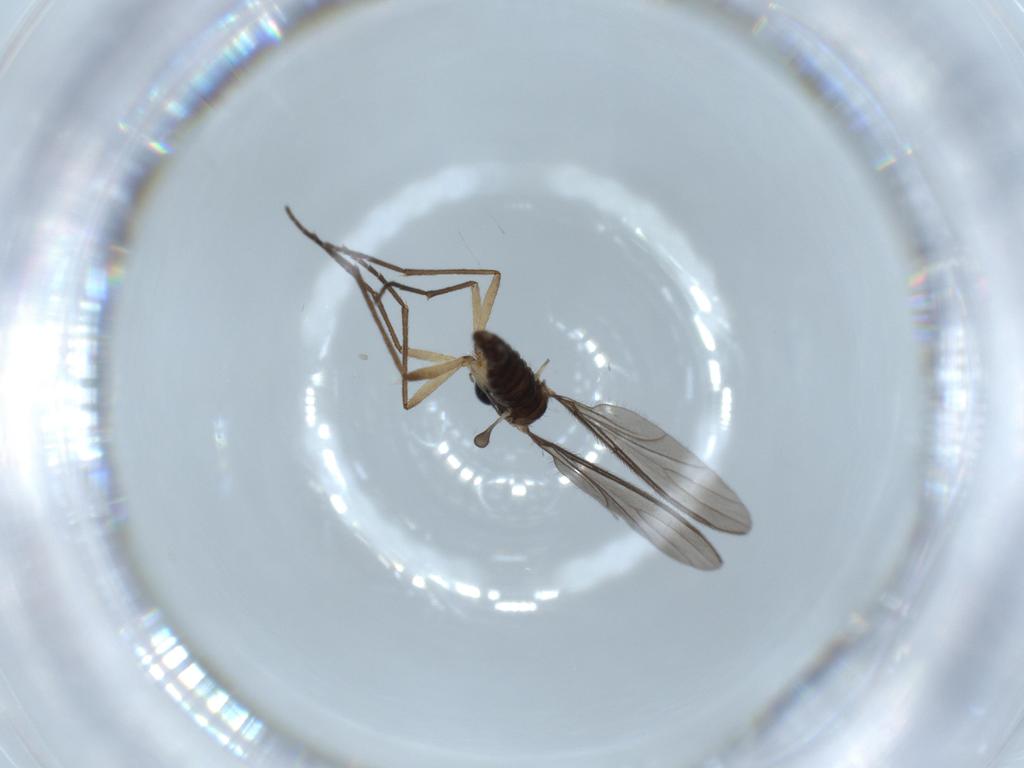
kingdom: Animalia
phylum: Arthropoda
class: Insecta
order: Diptera
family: Sciaridae
